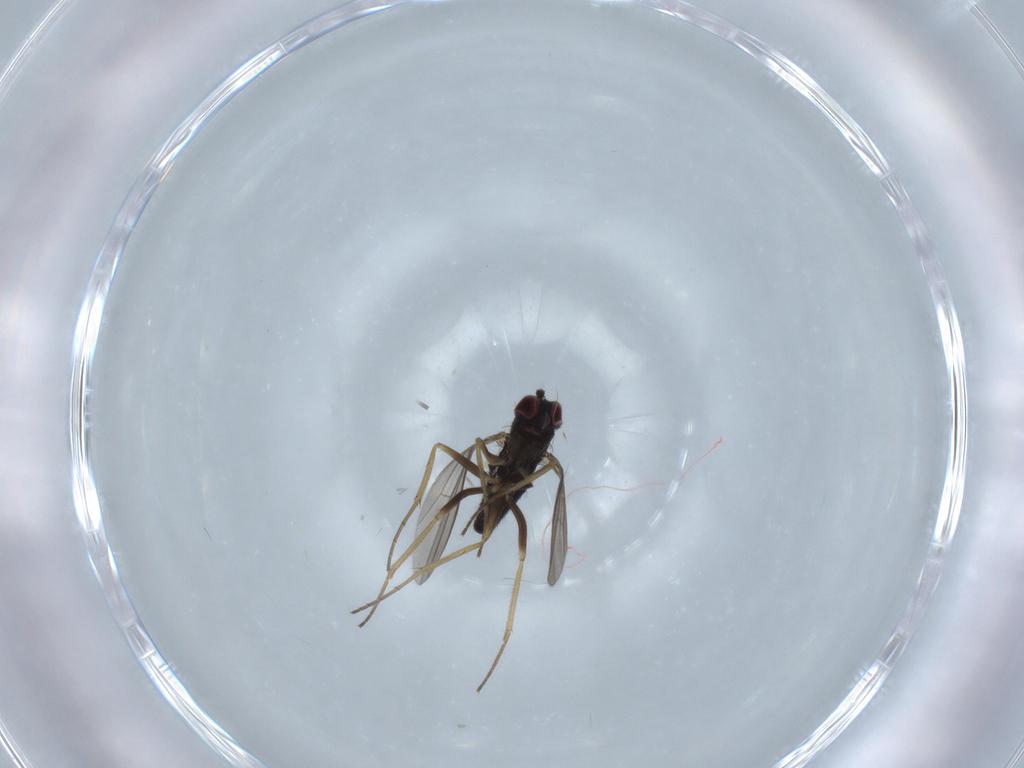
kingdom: Animalia
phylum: Arthropoda
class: Insecta
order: Diptera
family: Dolichopodidae
